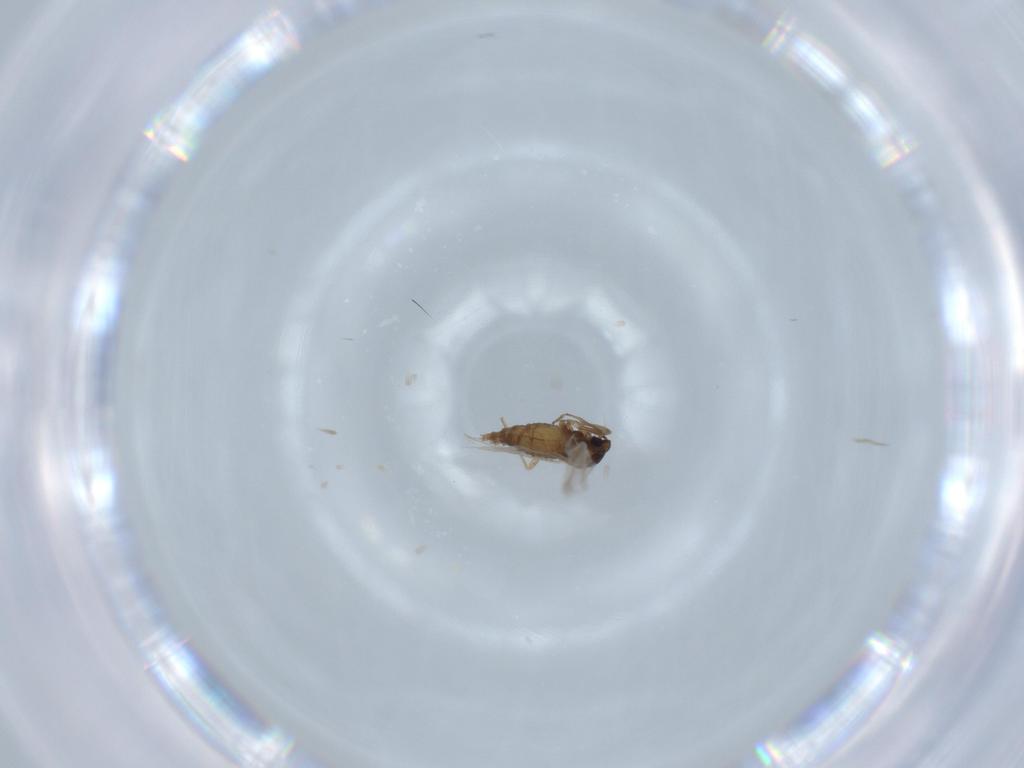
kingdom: Animalia
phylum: Arthropoda
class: Insecta
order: Diptera
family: Cecidomyiidae
